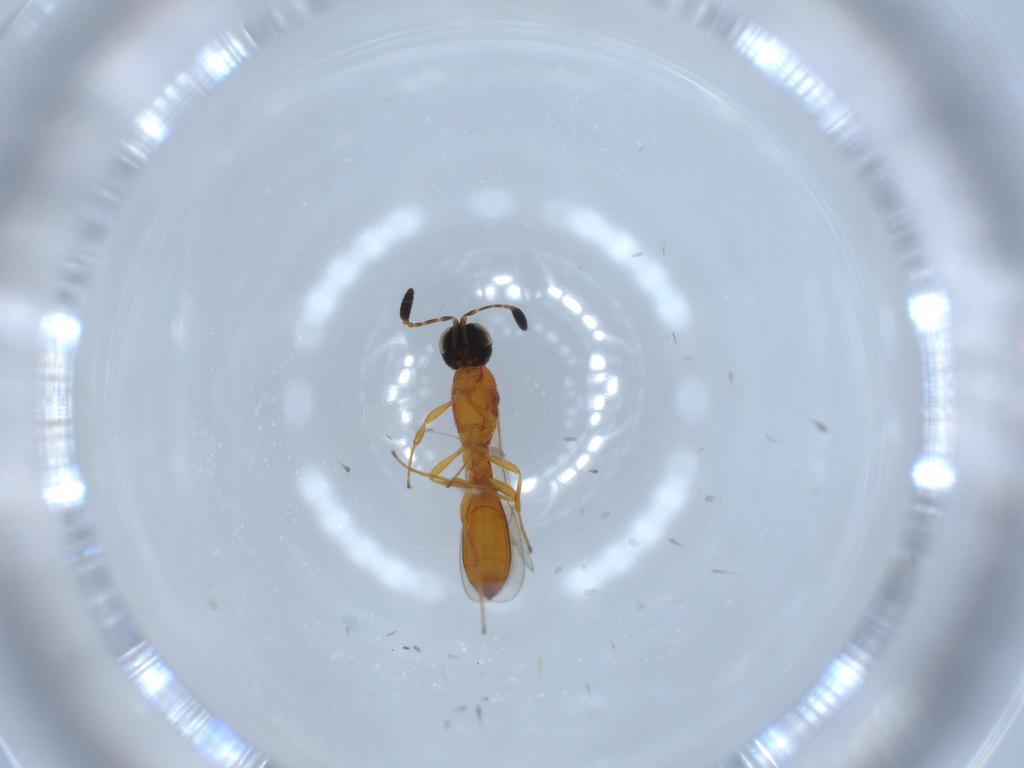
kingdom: Animalia
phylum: Arthropoda
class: Insecta
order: Hymenoptera
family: Scelionidae
